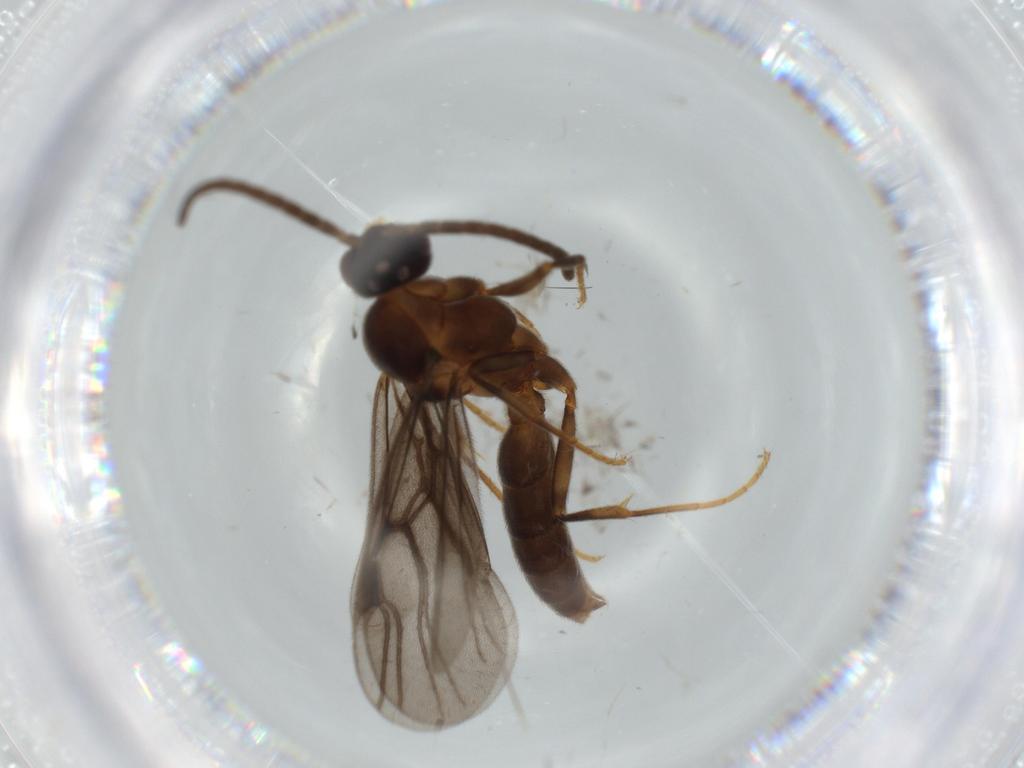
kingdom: Animalia
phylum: Arthropoda
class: Insecta
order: Hymenoptera
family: Formicidae
